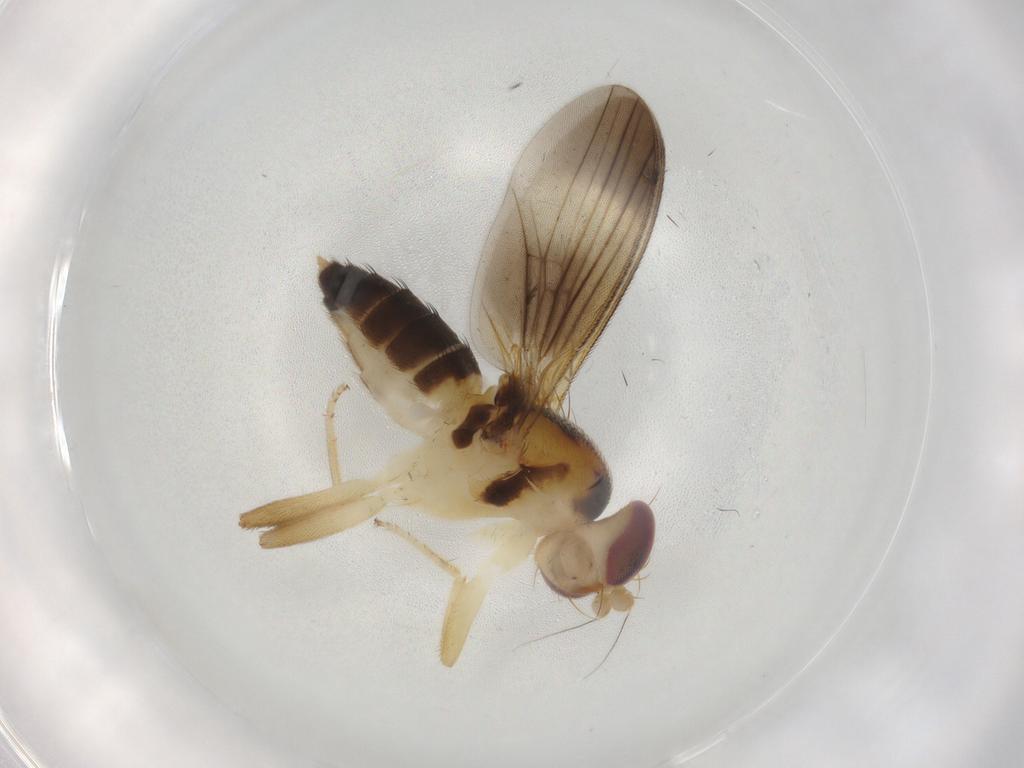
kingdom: Animalia
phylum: Arthropoda
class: Insecta
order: Diptera
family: Clusiidae
